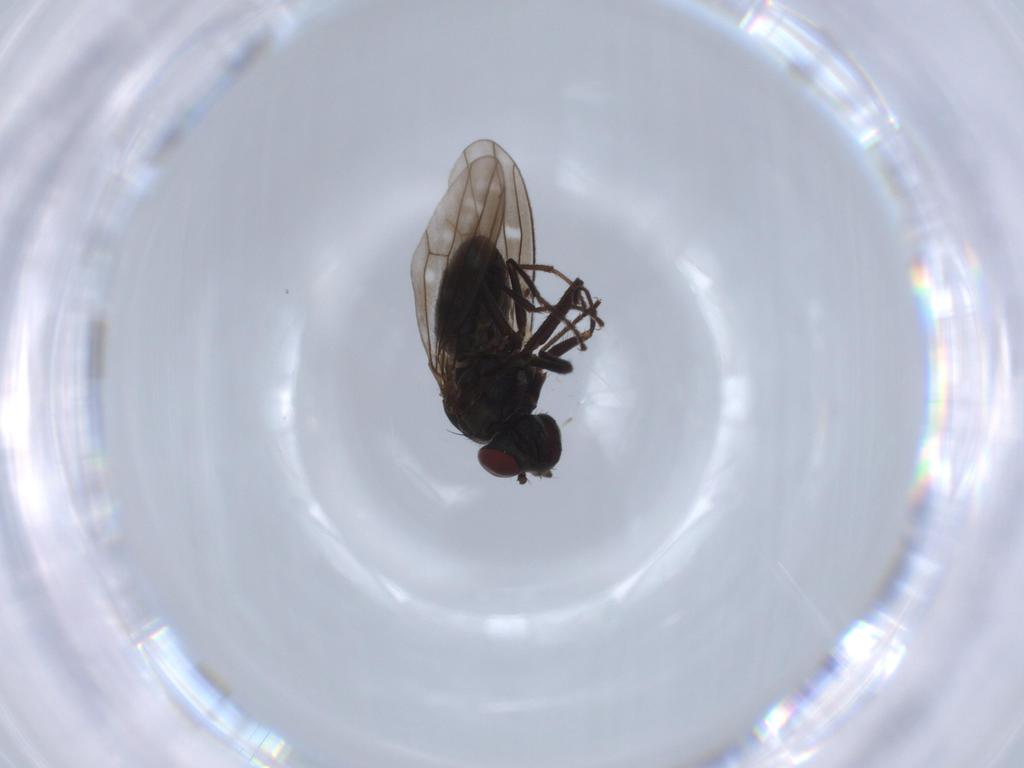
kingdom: Animalia
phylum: Arthropoda
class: Insecta
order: Diptera
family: Ephydridae
